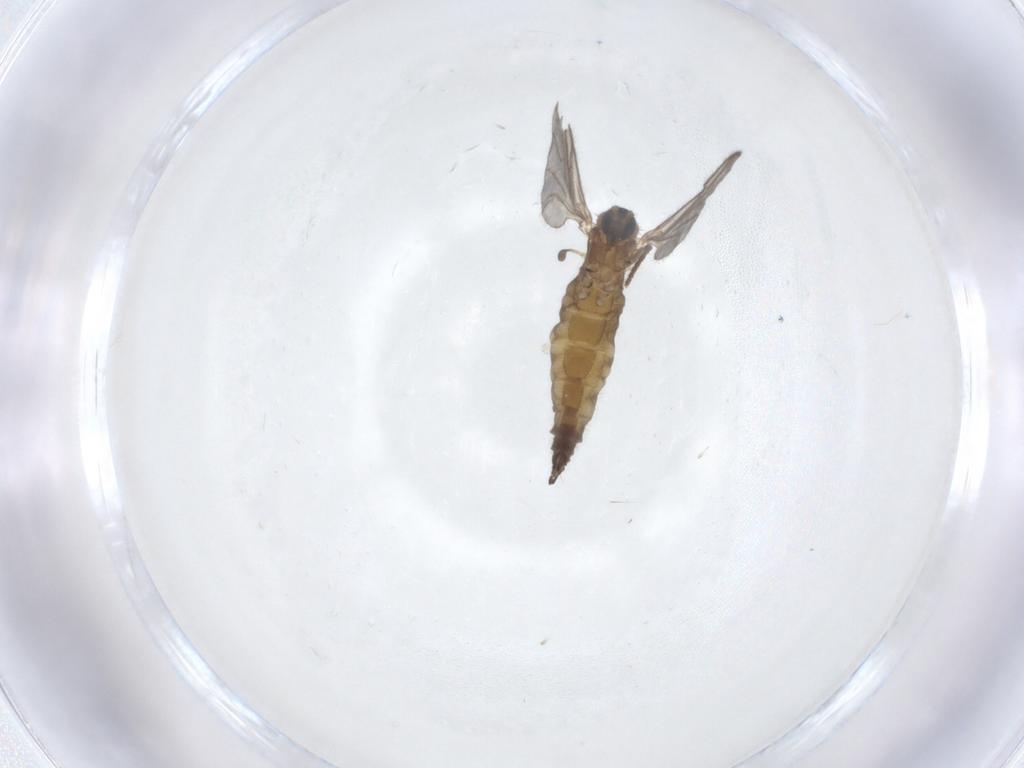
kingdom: Animalia
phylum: Arthropoda
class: Insecta
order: Diptera
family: Sciaridae
